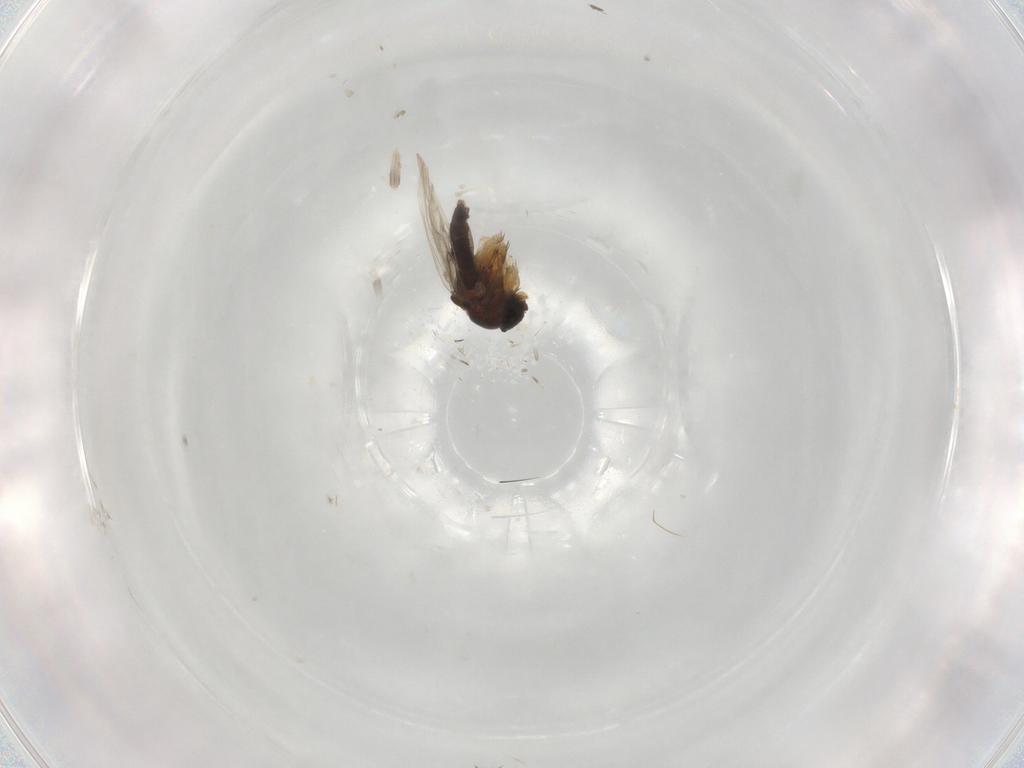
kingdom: Animalia
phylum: Arthropoda
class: Insecta
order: Diptera
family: Phoridae
